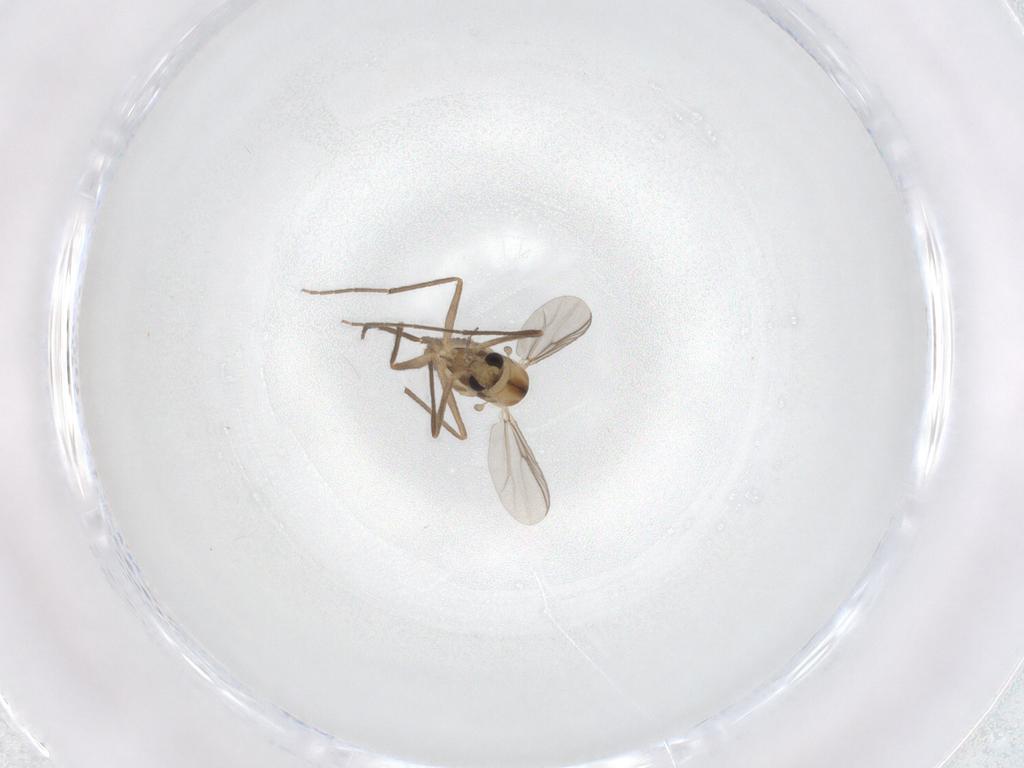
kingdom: Animalia
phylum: Arthropoda
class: Insecta
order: Diptera
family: Chironomidae
